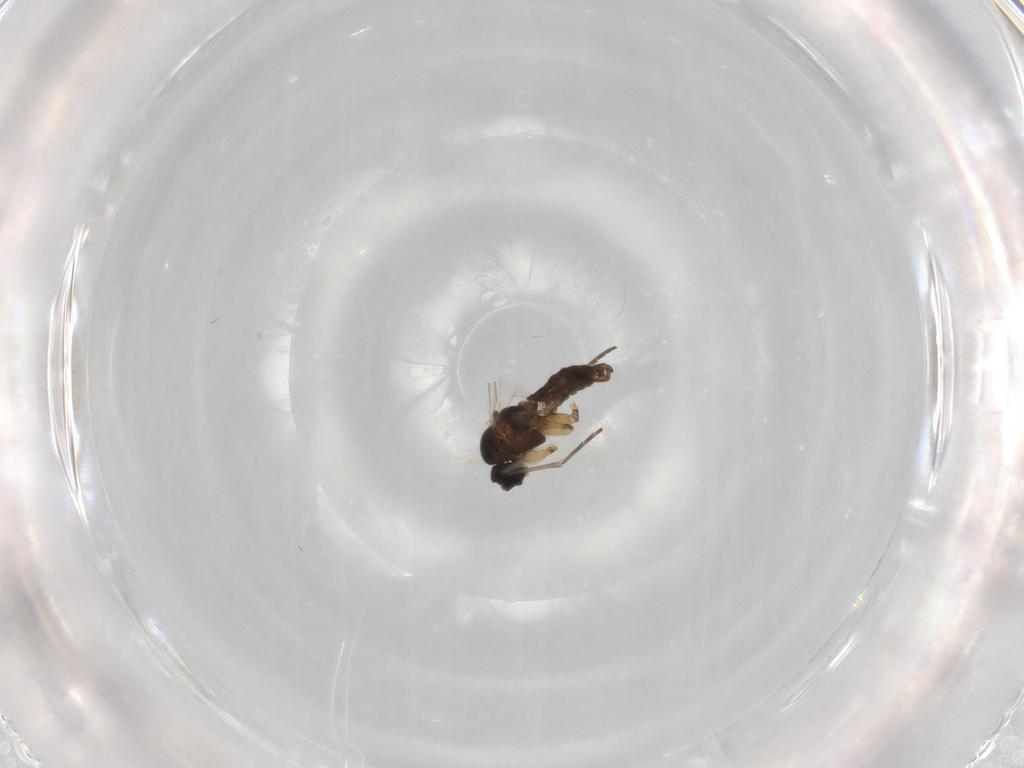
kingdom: Animalia
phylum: Arthropoda
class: Insecta
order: Diptera
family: Sciaridae
